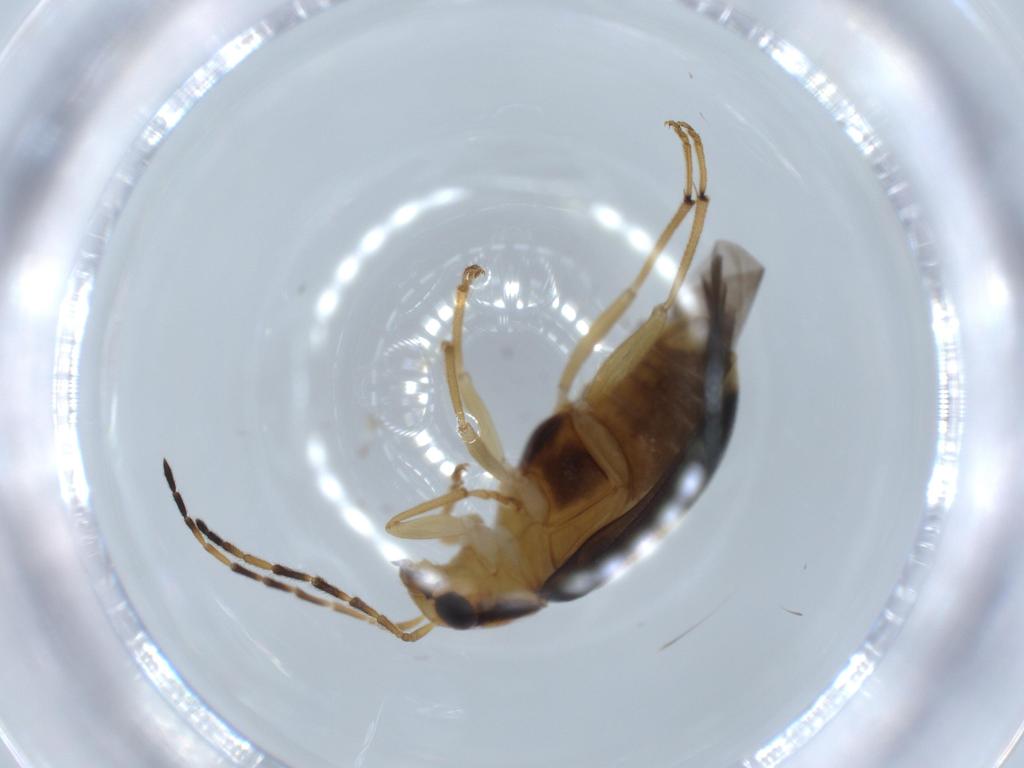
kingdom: Animalia
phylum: Arthropoda
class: Insecta
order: Coleoptera
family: Curculionidae
